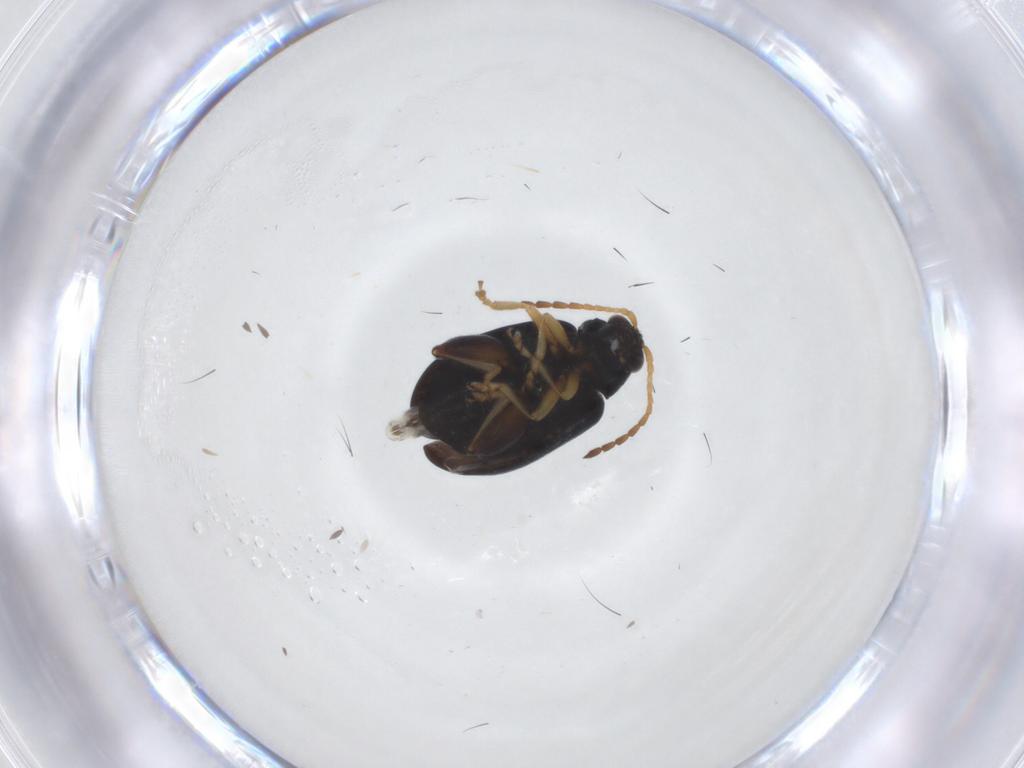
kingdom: Animalia
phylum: Arthropoda
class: Insecta
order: Coleoptera
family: Chrysomelidae
